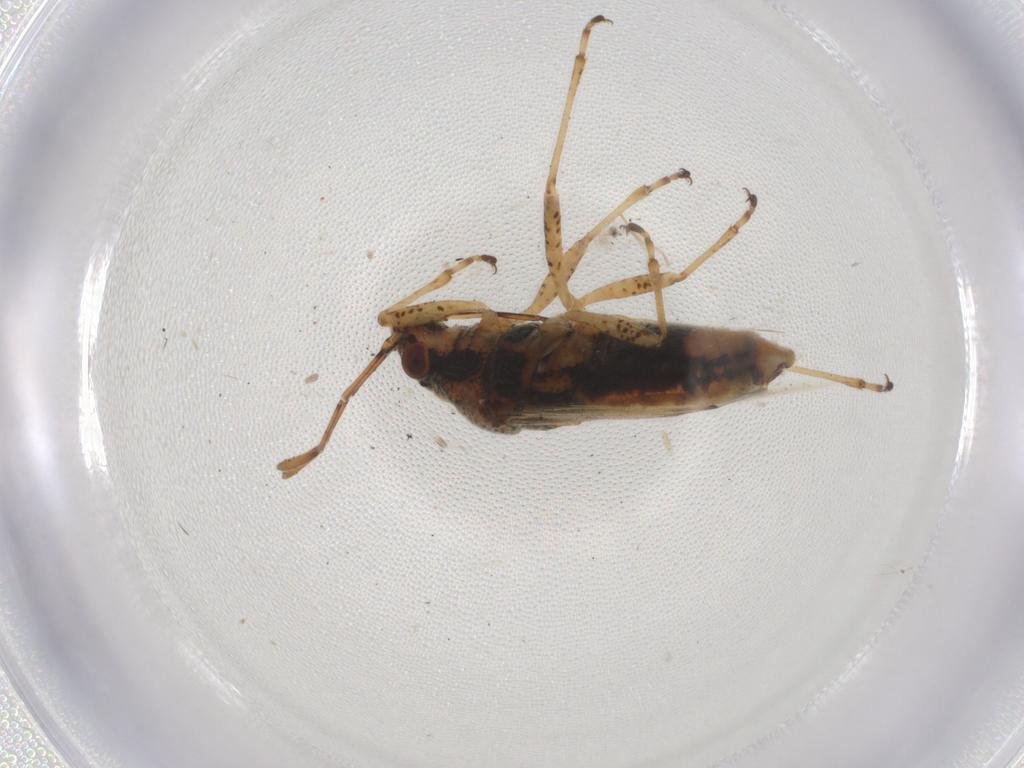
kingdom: Animalia
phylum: Arthropoda
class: Insecta
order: Hemiptera
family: Lygaeidae
